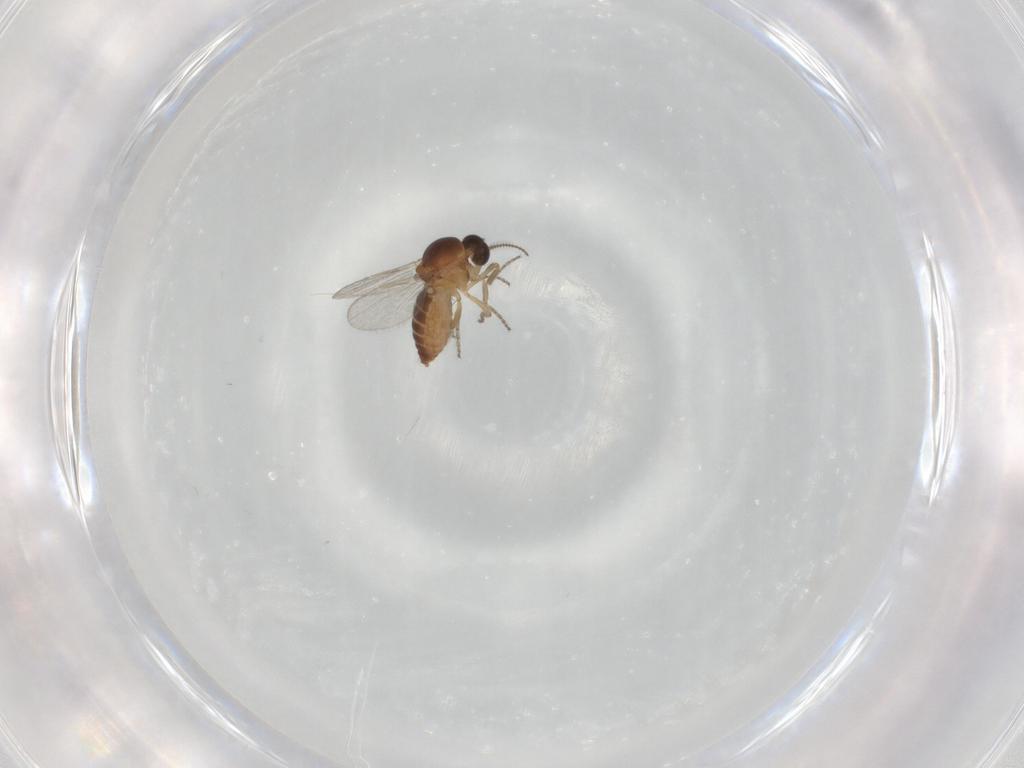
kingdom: Animalia
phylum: Arthropoda
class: Insecta
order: Diptera
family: Ceratopogonidae
